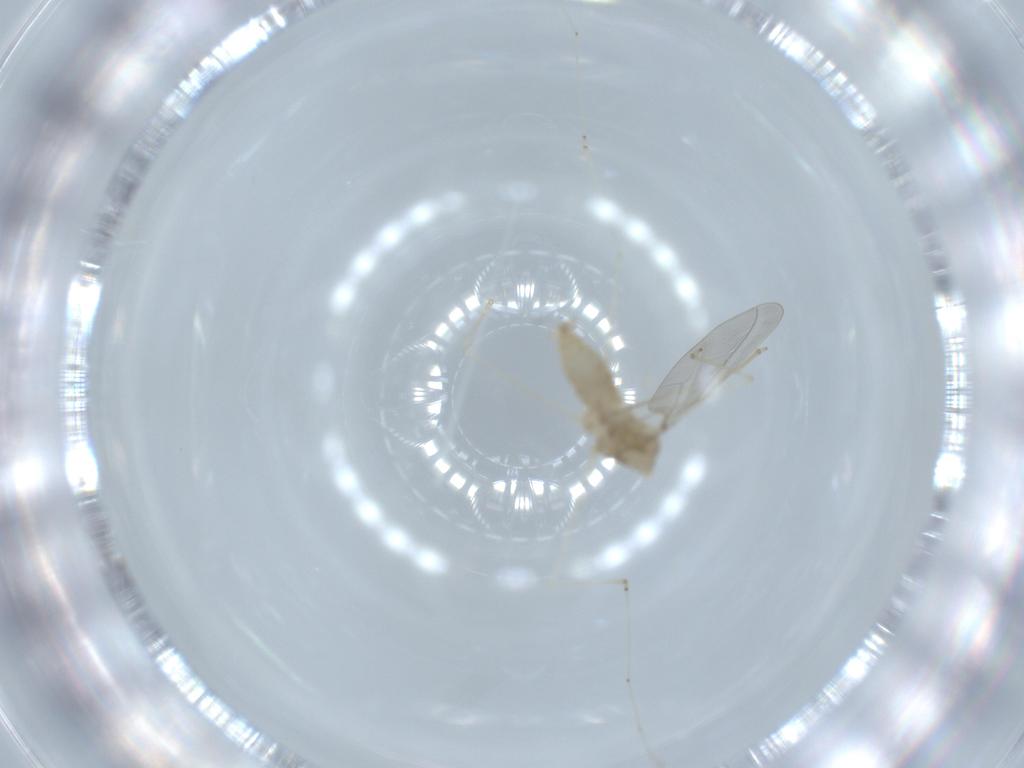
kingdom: Animalia
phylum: Arthropoda
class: Insecta
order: Diptera
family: Cecidomyiidae
